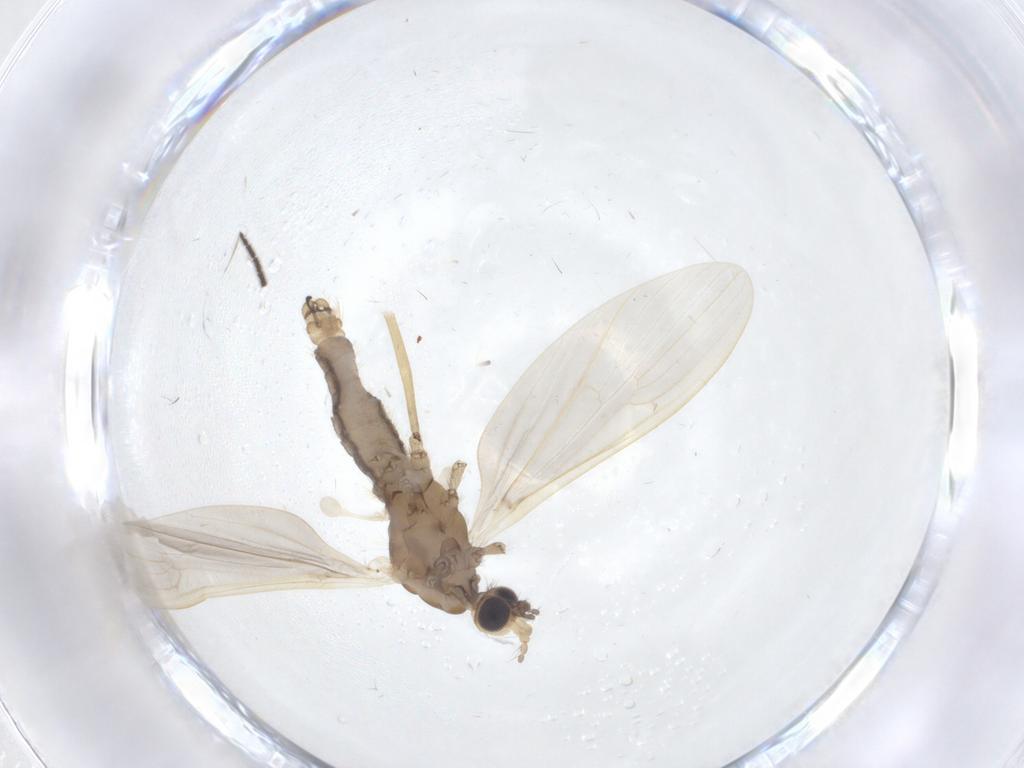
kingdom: Animalia
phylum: Arthropoda
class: Insecta
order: Diptera
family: Limoniidae
